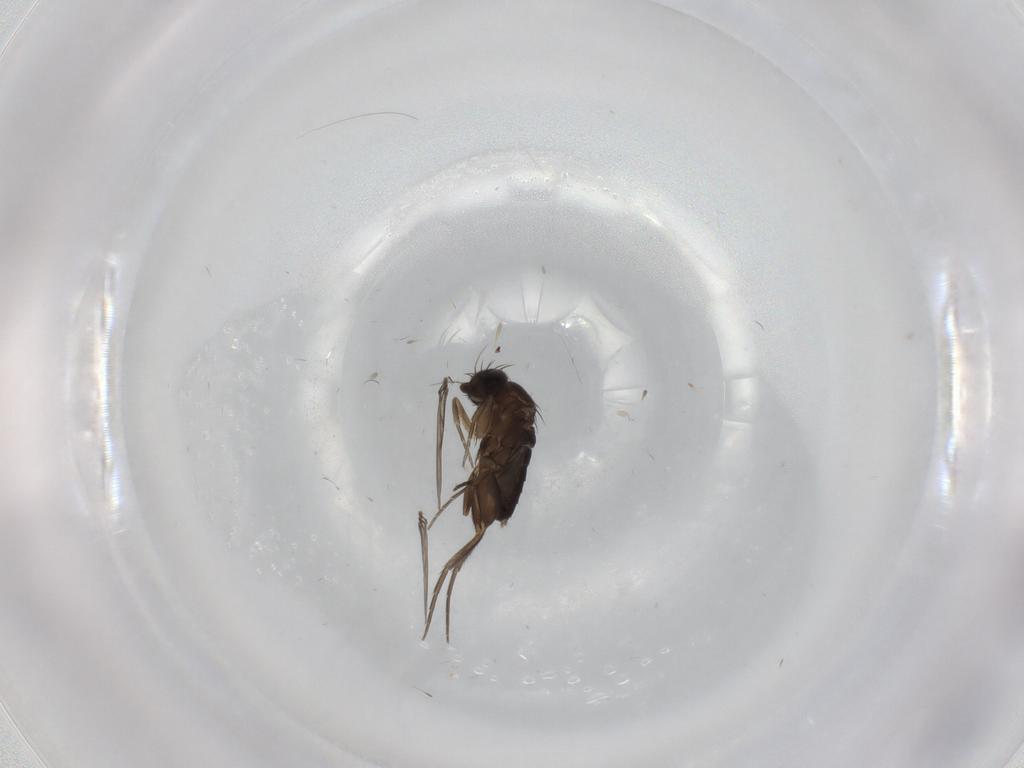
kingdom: Animalia
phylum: Arthropoda
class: Insecta
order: Diptera
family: Phoridae
